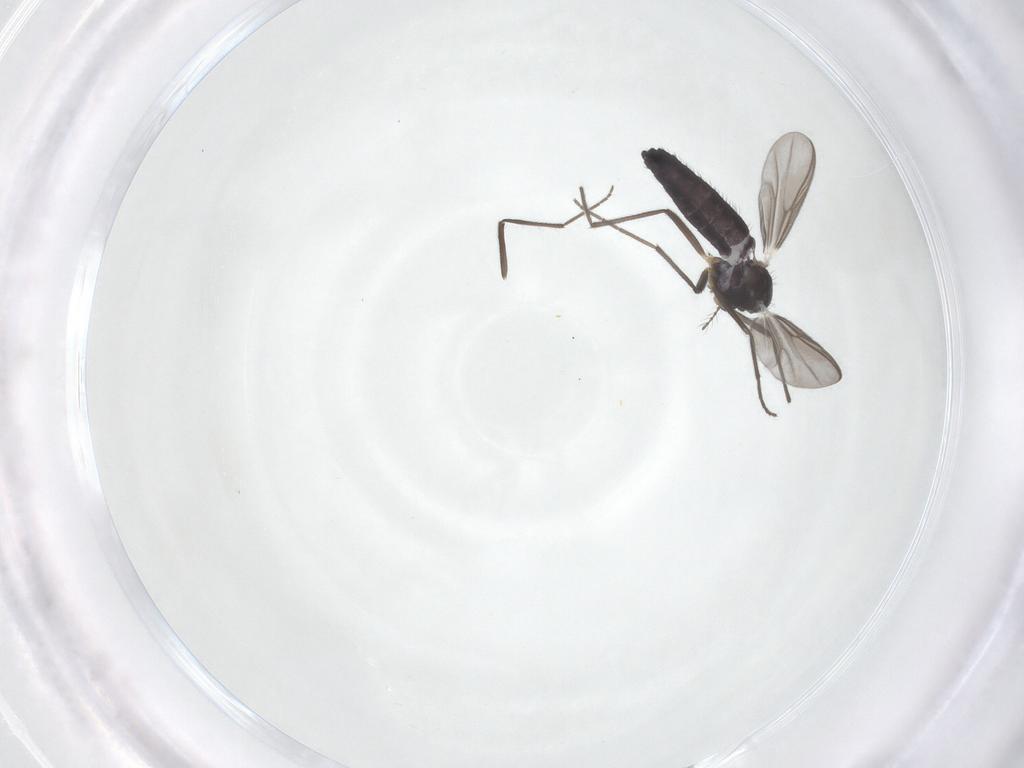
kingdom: Animalia
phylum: Arthropoda
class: Insecta
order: Diptera
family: Chironomidae
